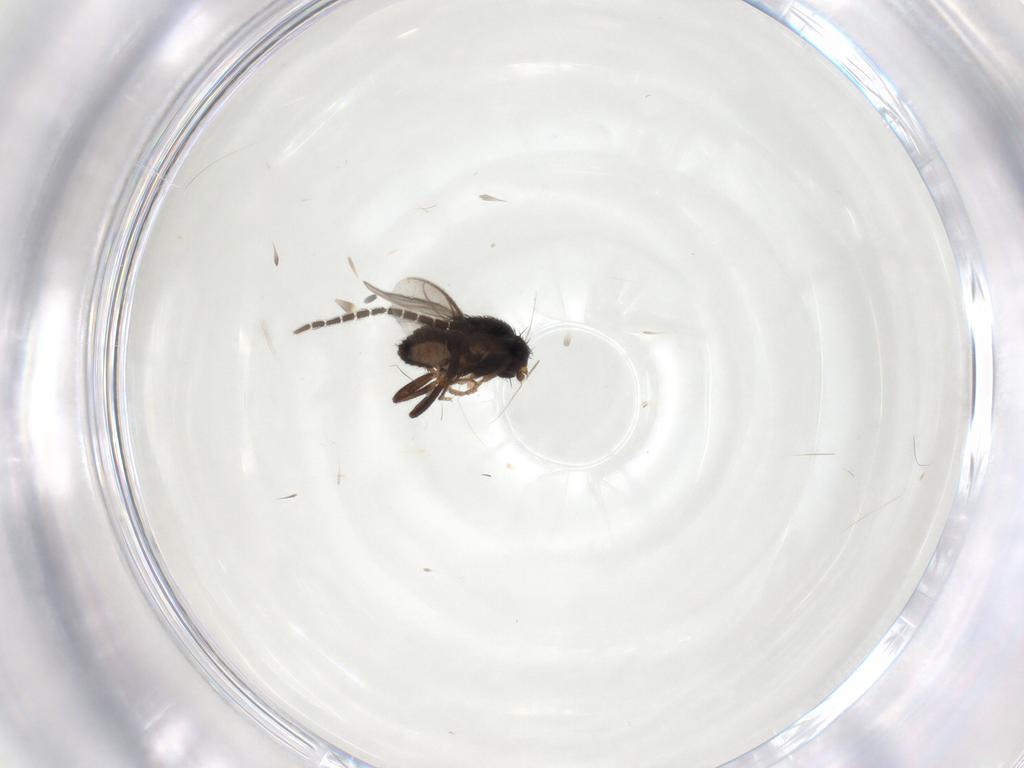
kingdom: Animalia
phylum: Arthropoda
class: Insecta
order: Diptera
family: Sphaeroceridae
